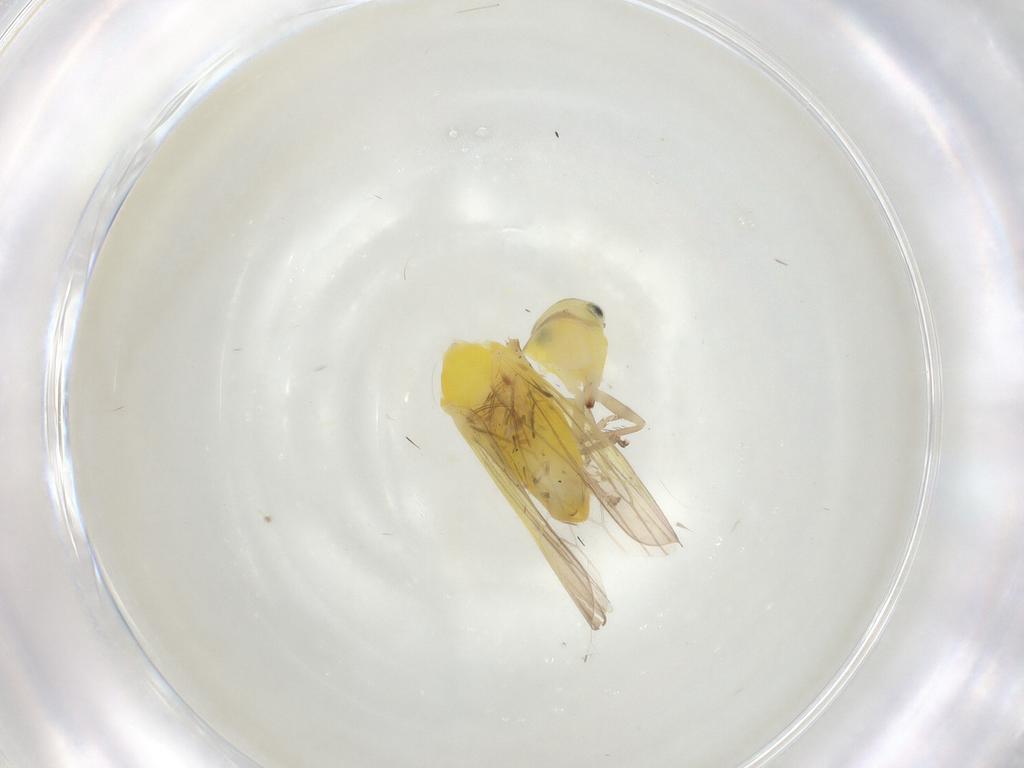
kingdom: Animalia
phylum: Arthropoda
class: Insecta
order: Hemiptera
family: Cicadellidae
